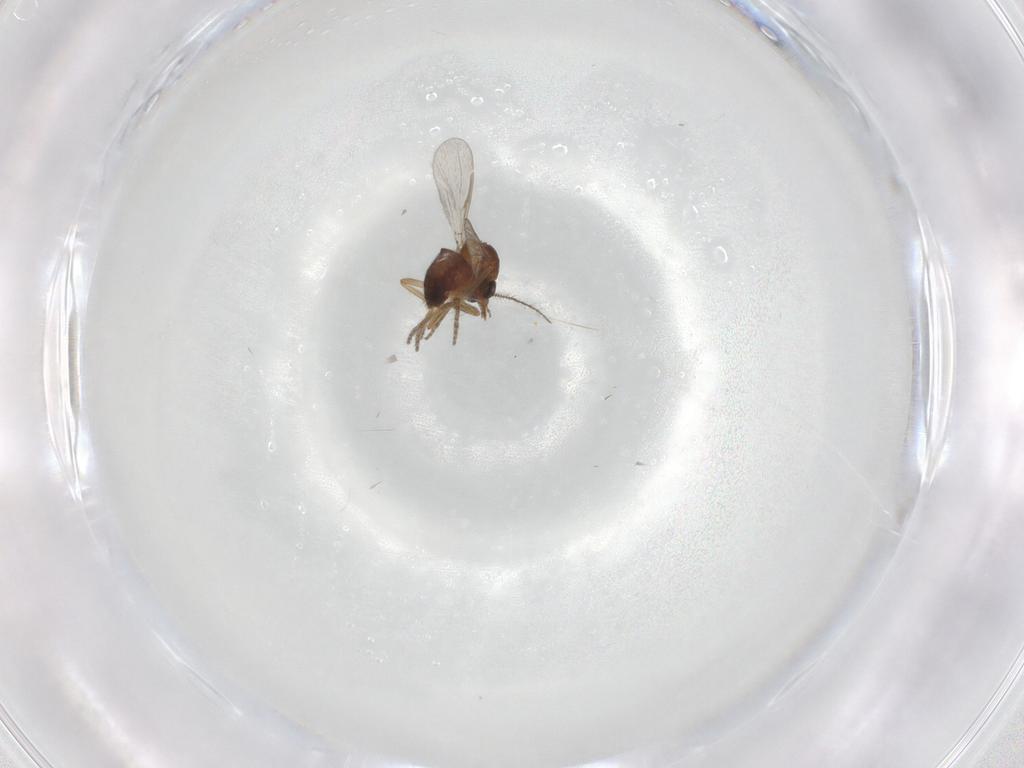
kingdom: Animalia
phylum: Arthropoda
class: Insecta
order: Diptera
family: Ceratopogonidae
